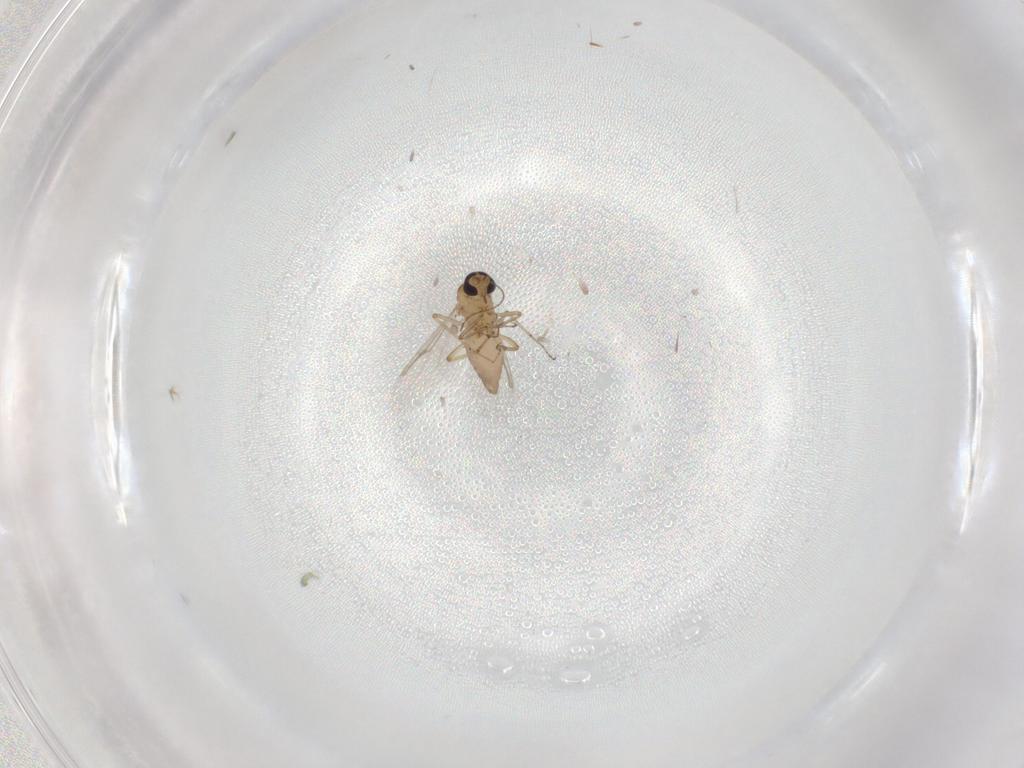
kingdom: Animalia
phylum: Arthropoda
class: Insecta
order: Diptera
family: Ceratopogonidae
